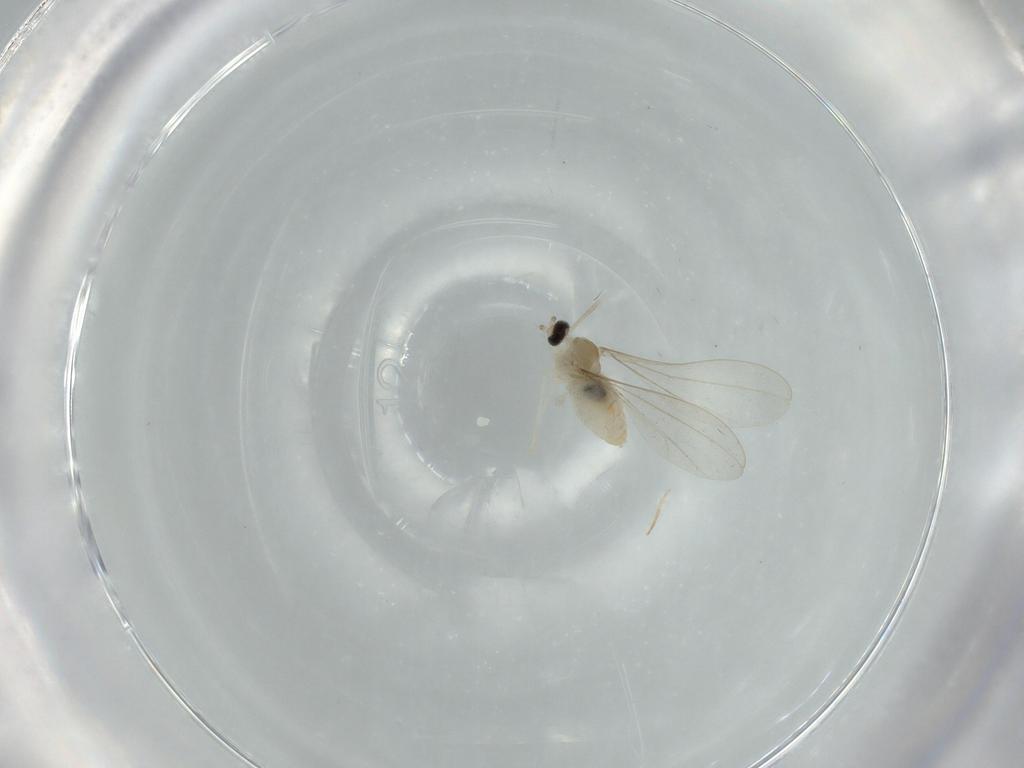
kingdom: Animalia
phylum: Arthropoda
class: Insecta
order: Diptera
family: Cecidomyiidae
